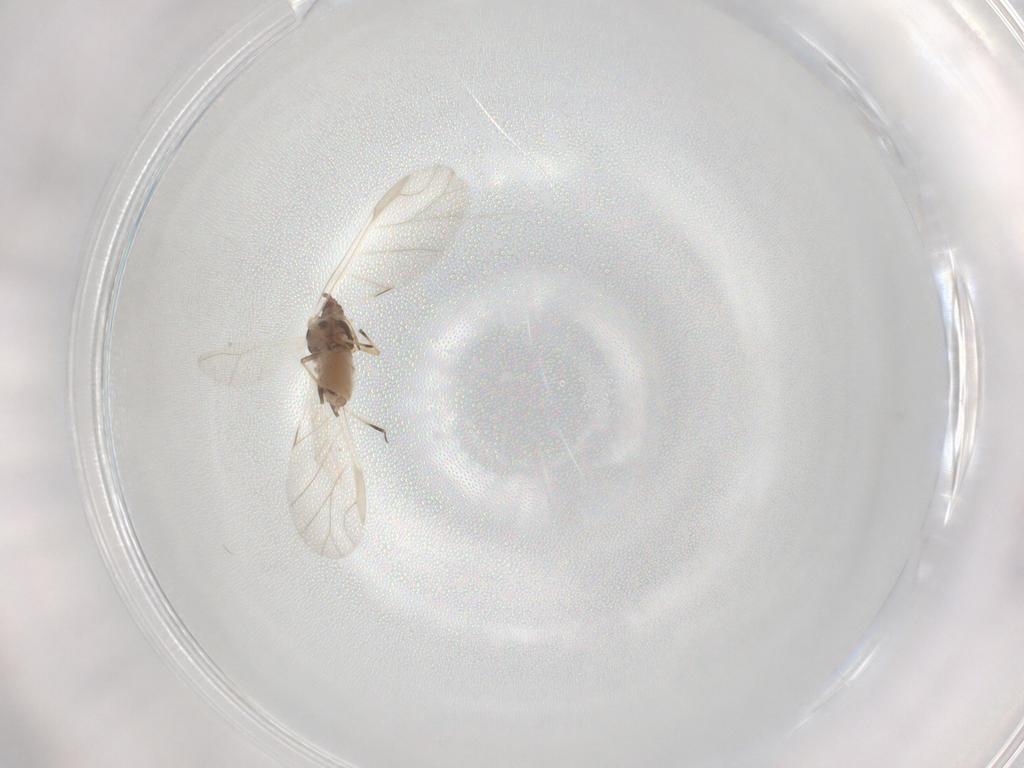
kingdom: Animalia
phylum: Arthropoda
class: Insecta
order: Hemiptera
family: Aphididae
